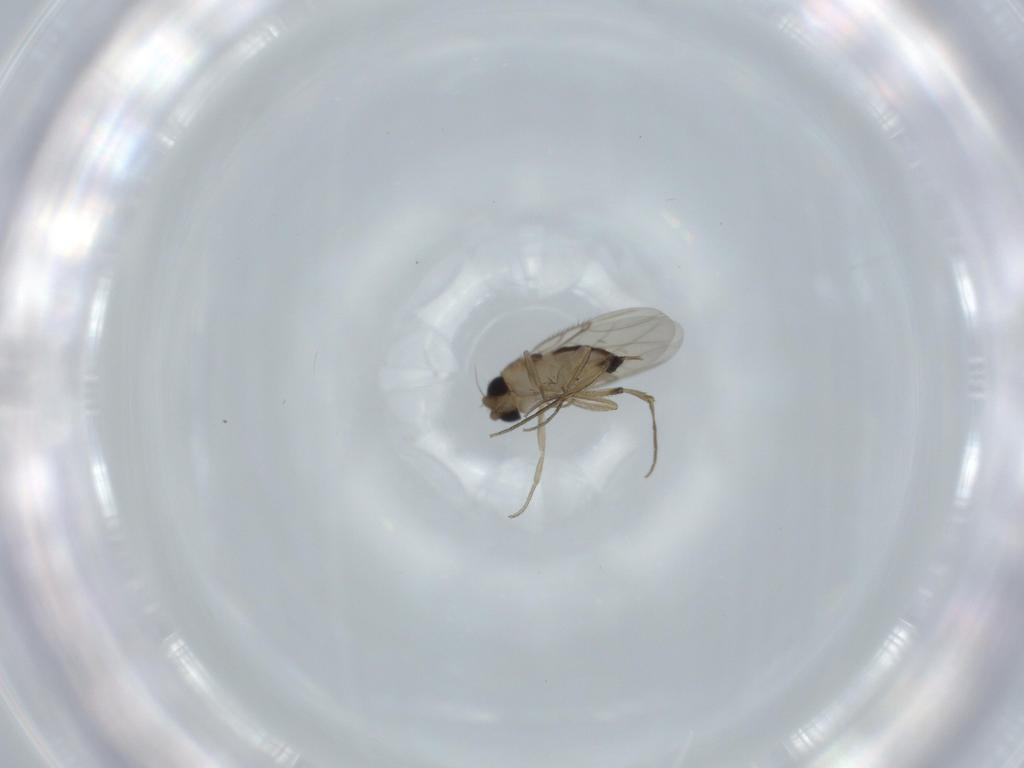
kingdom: Animalia
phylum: Arthropoda
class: Insecta
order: Diptera
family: Phoridae
